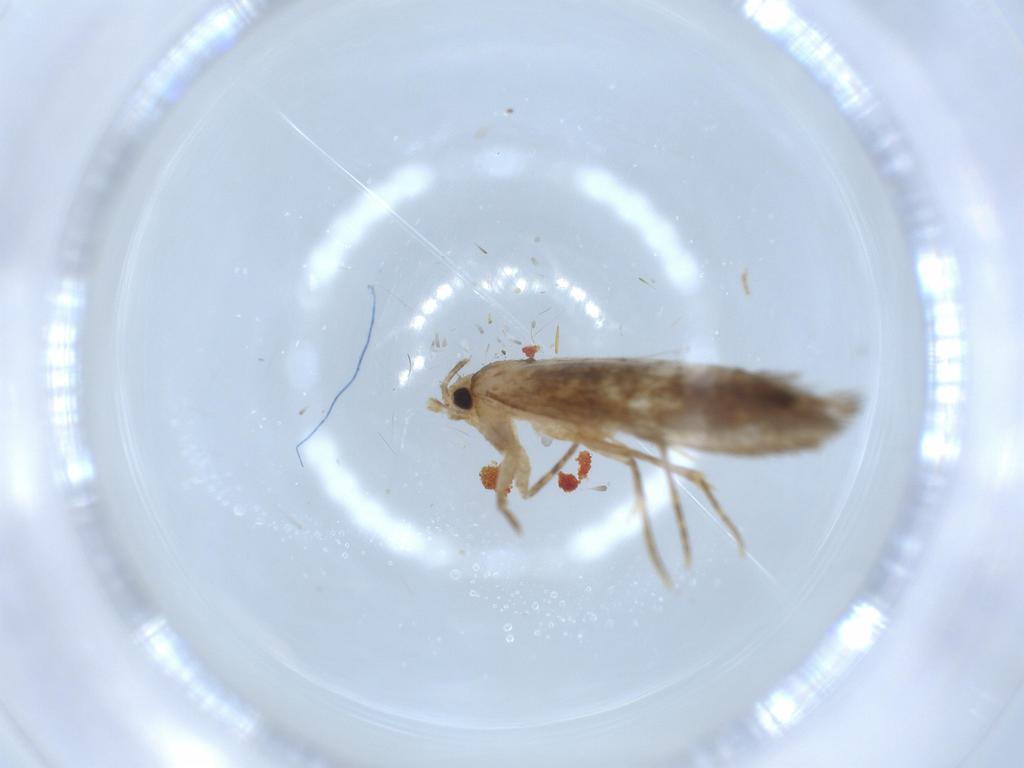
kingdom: Animalia
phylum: Arthropoda
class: Insecta
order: Lepidoptera
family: Tineidae
